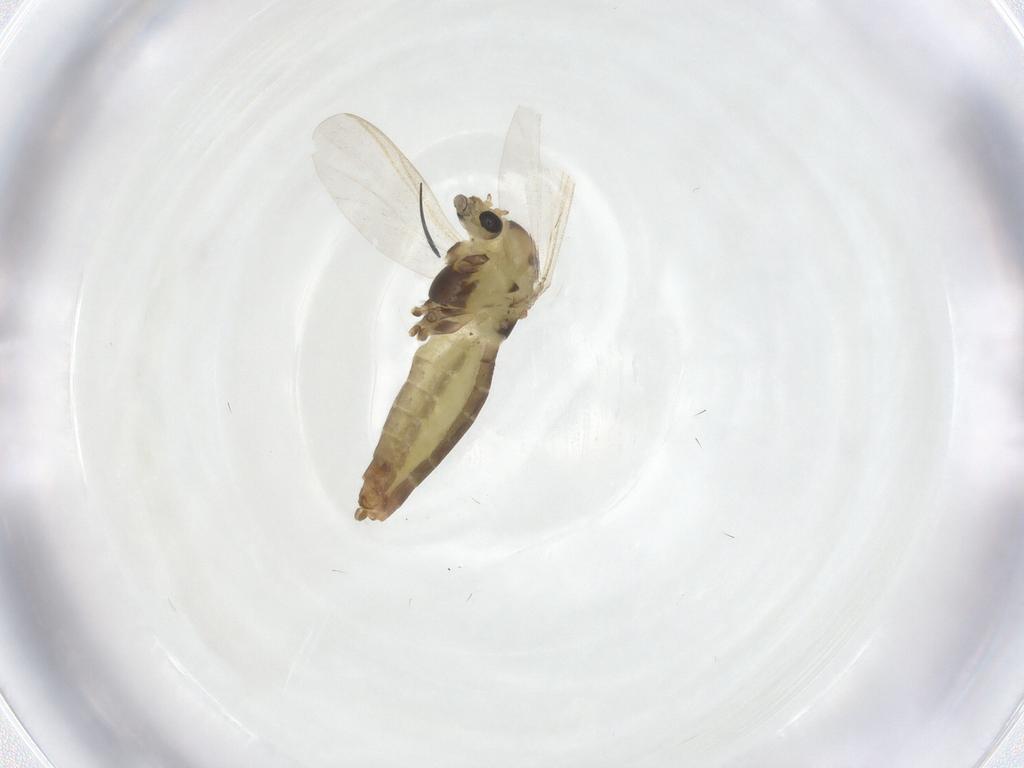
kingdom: Animalia
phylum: Arthropoda
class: Insecta
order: Diptera
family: Chironomidae
